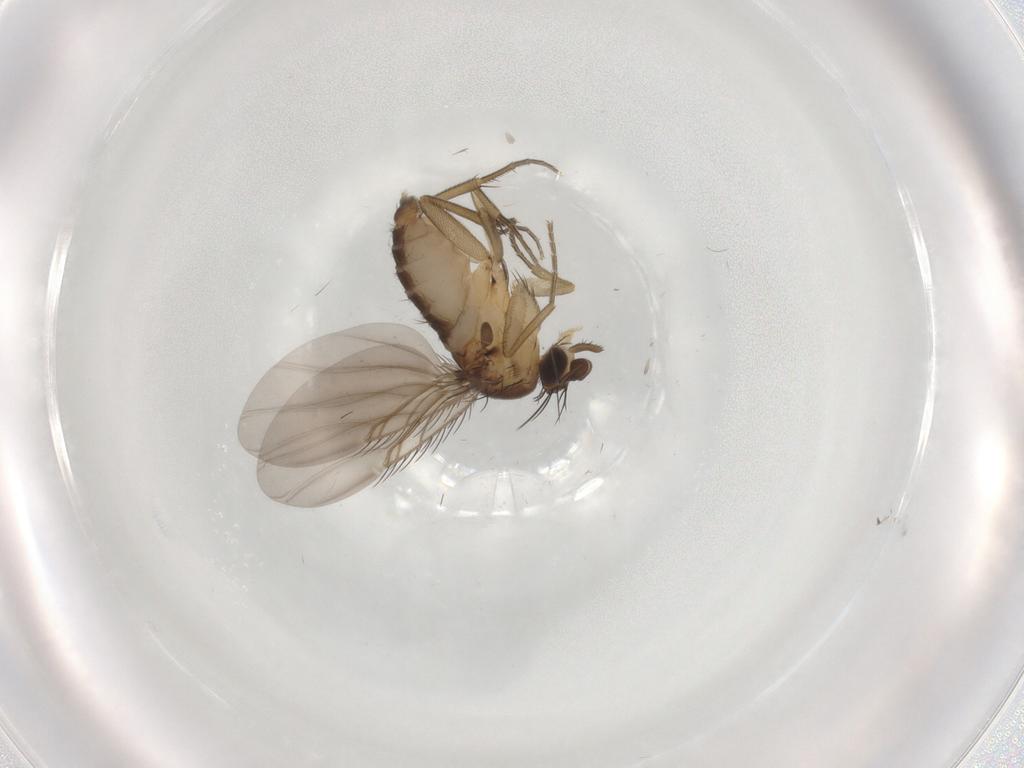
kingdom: Animalia
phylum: Arthropoda
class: Insecta
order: Diptera
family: Phoridae
